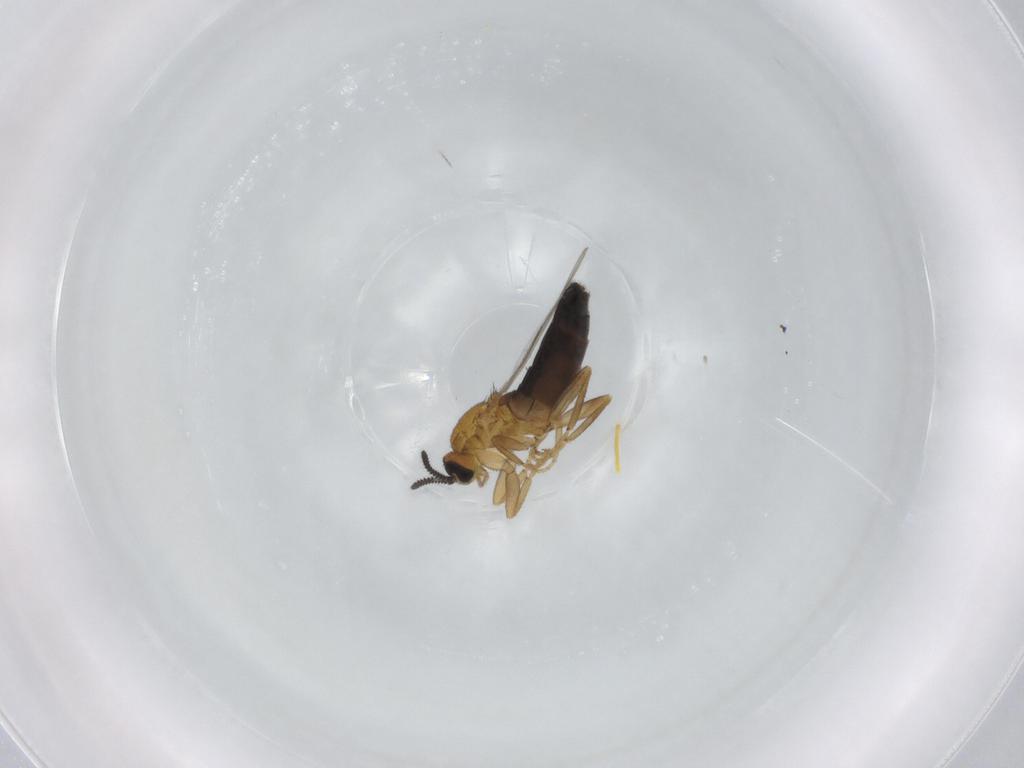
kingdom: Animalia
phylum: Arthropoda
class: Insecta
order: Diptera
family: Scatopsidae
